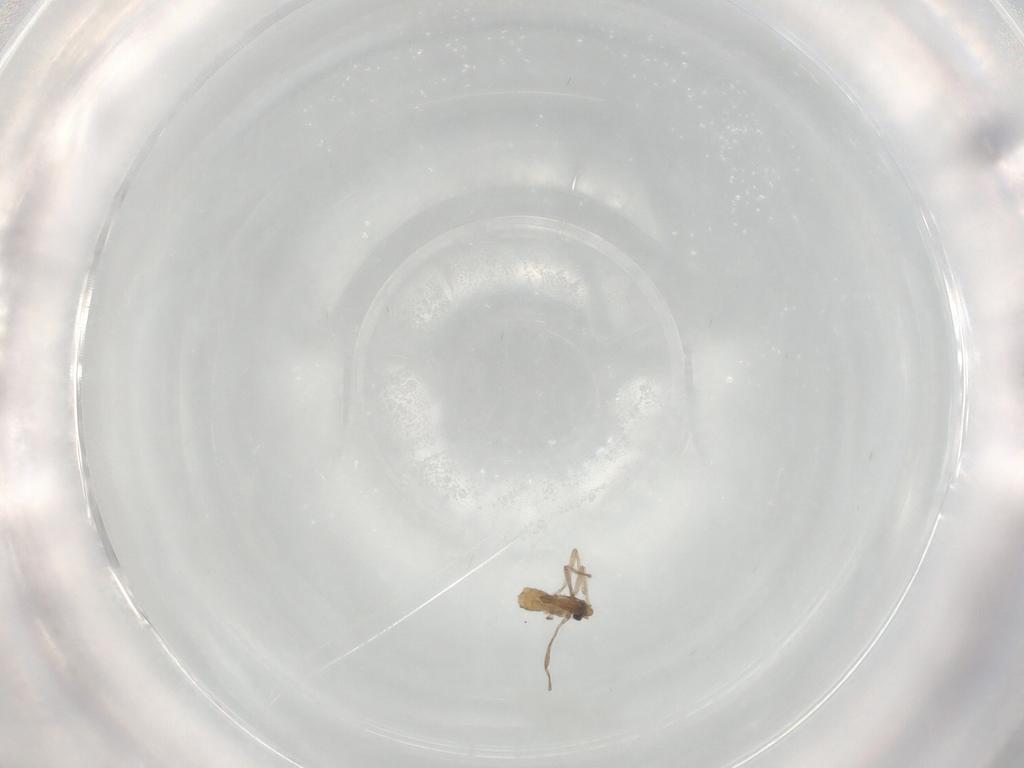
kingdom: Animalia
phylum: Arthropoda
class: Insecta
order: Diptera
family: Chironomidae
